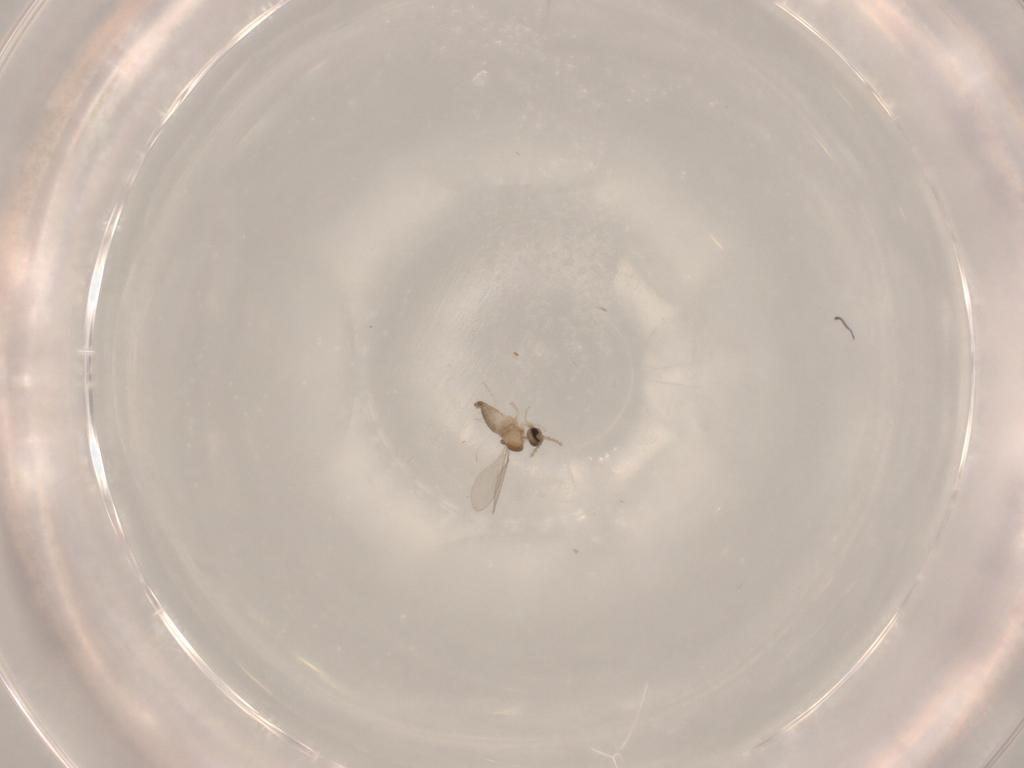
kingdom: Animalia
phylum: Arthropoda
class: Insecta
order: Diptera
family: Cecidomyiidae
